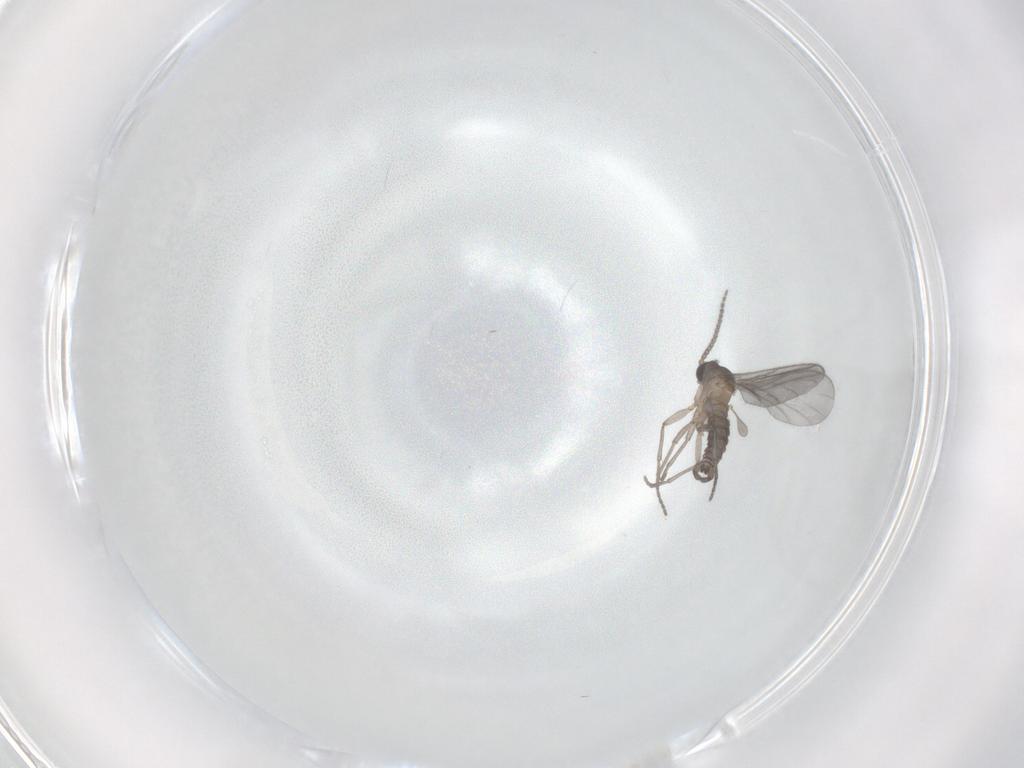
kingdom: Animalia
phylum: Arthropoda
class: Insecta
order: Diptera
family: Sciaridae
